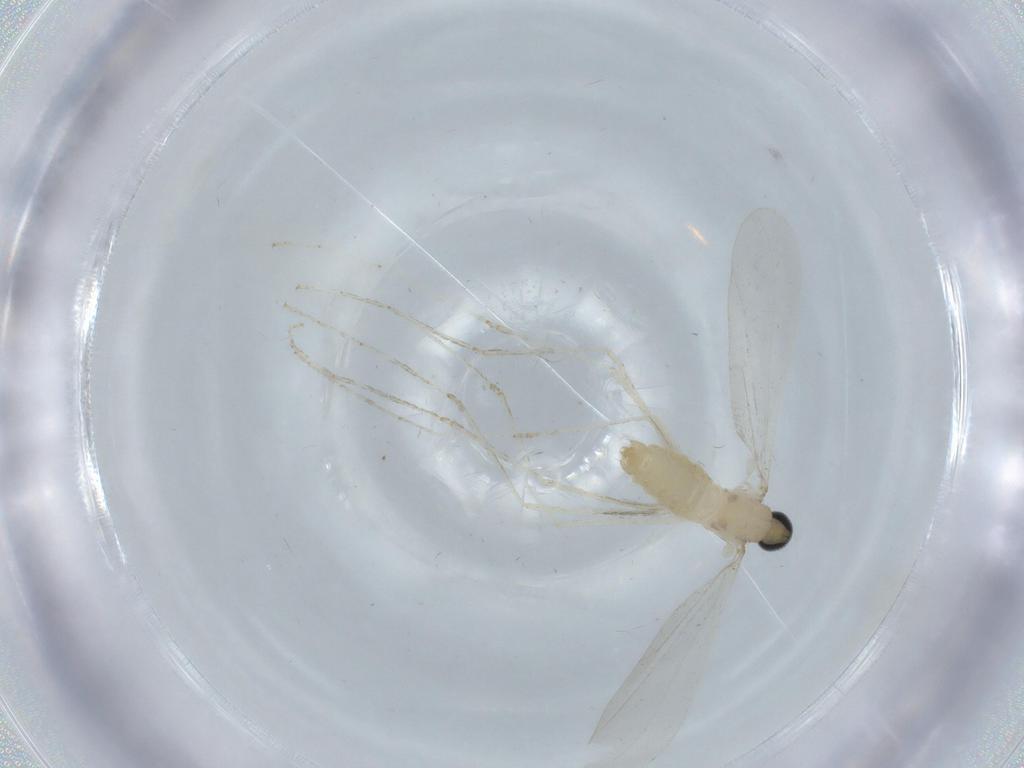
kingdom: Animalia
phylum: Arthropoda
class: Insecta
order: Diptera
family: Cecidomyiidae
